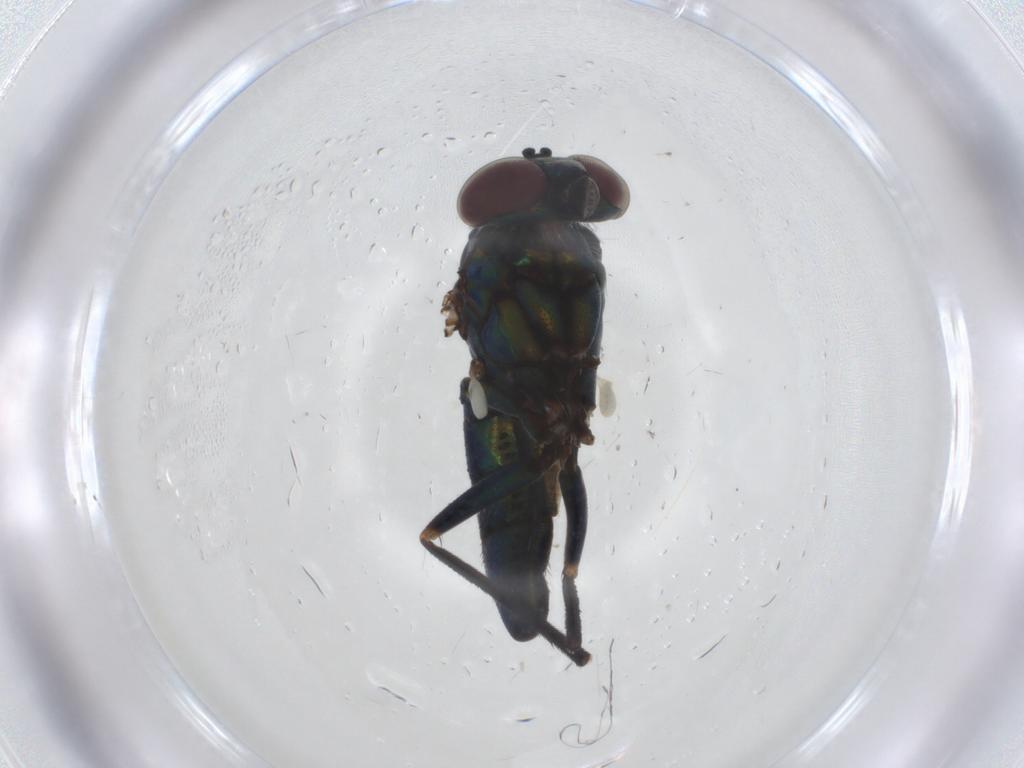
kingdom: Animalia
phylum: Arthropoda
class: Insecta
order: Diptera
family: Dolichopodidae
